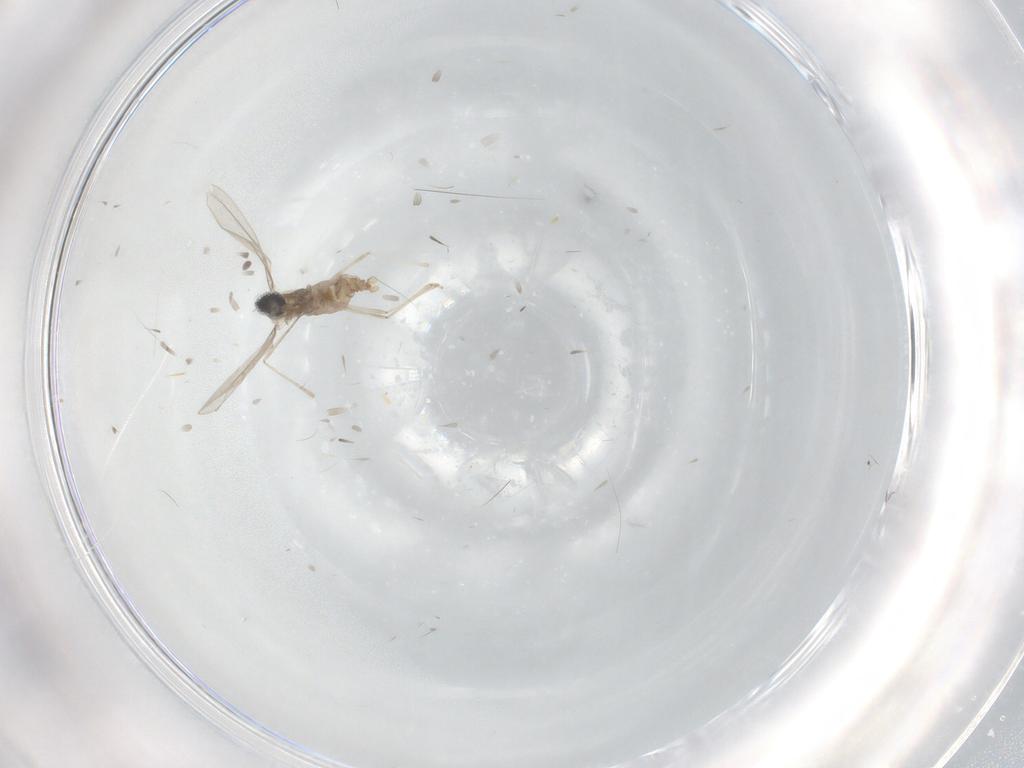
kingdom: Animalia
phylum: Arthropoda
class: Insecta
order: Diptera
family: Cecidomyiidae
